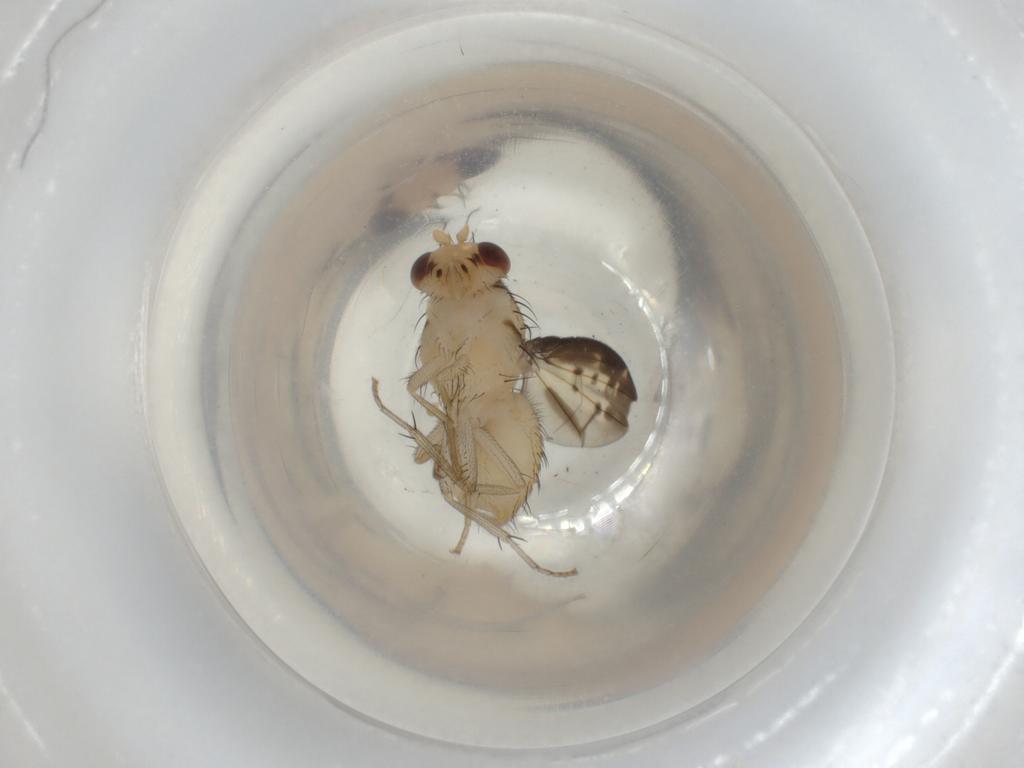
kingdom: Animalia
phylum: Arthropoda
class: Insecta
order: Diptera
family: Lauxaniidae
